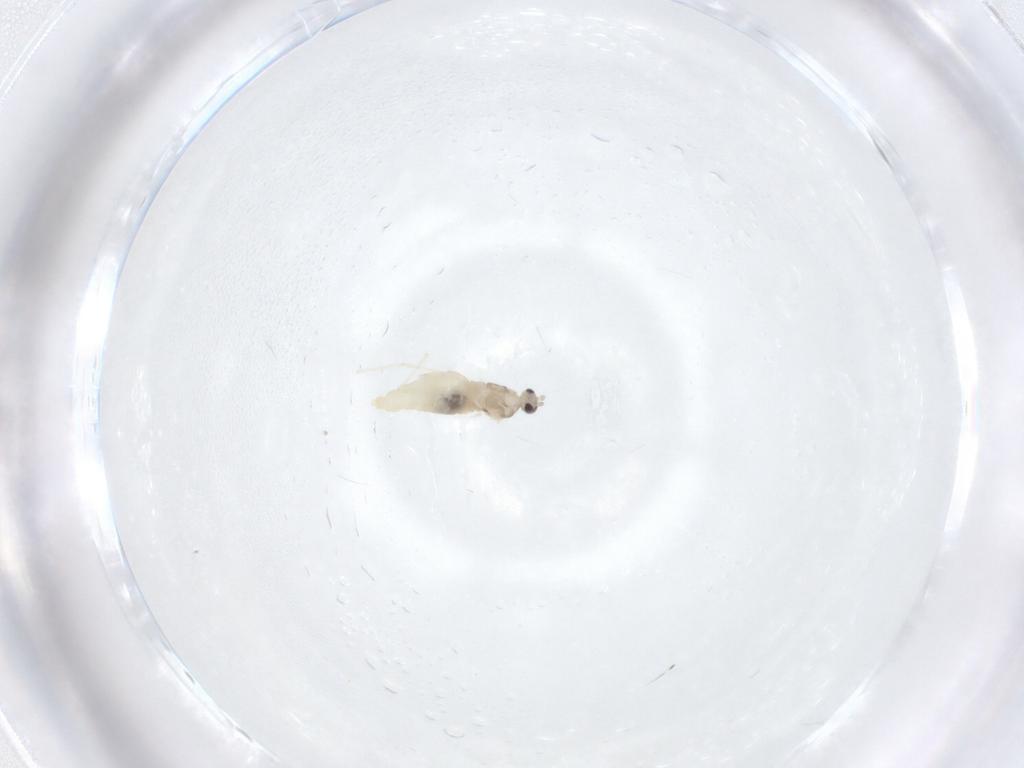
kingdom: Animalia
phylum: Arthropoda
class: Insecta
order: Diptera
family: Cecidomyiidae
